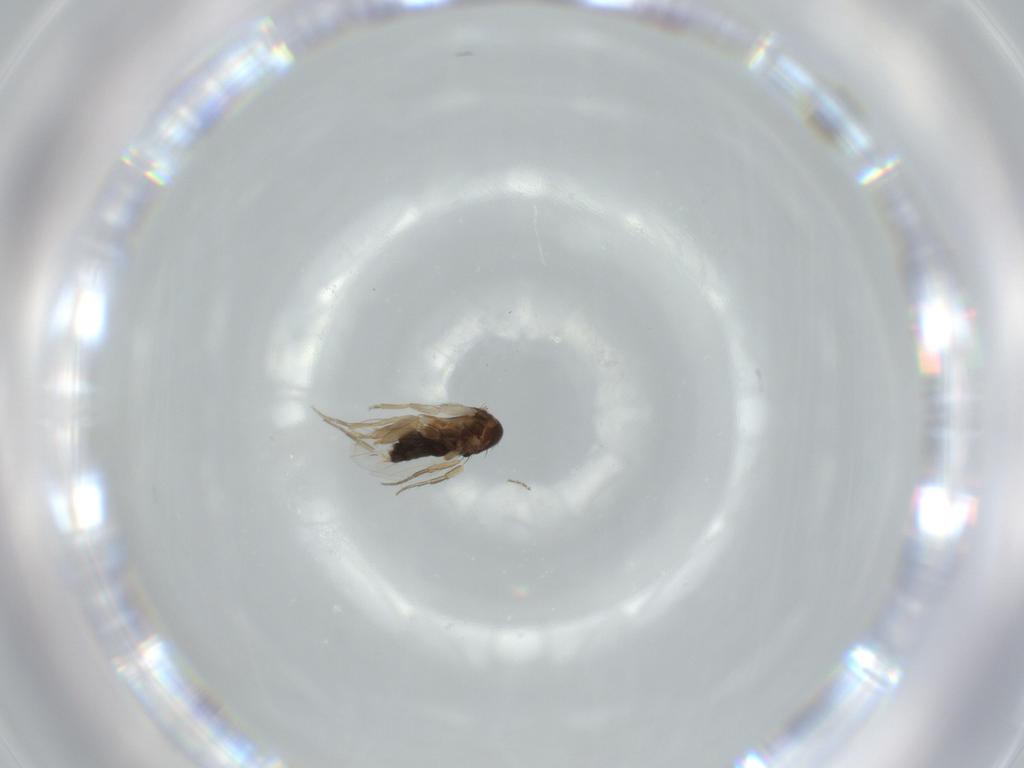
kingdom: Animalia
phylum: Arthropoda
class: Insecta
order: Diptera
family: Phoridae
